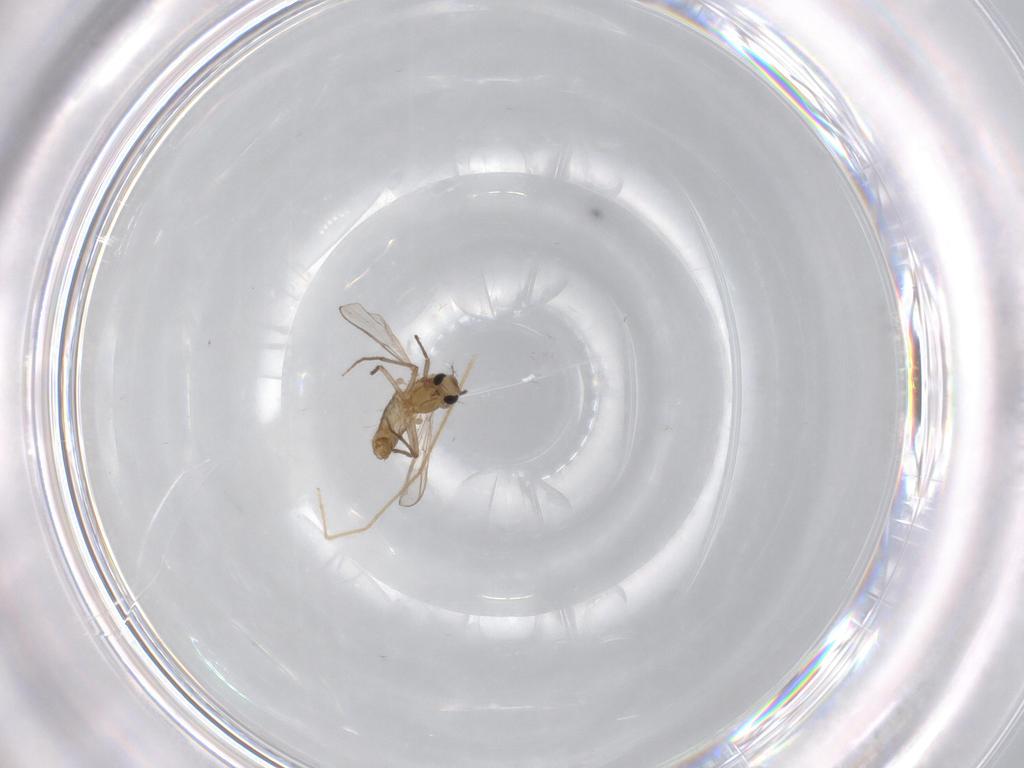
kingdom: Animalia
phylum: Arthropoda
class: Insecta
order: Diptera
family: Chironomidae
